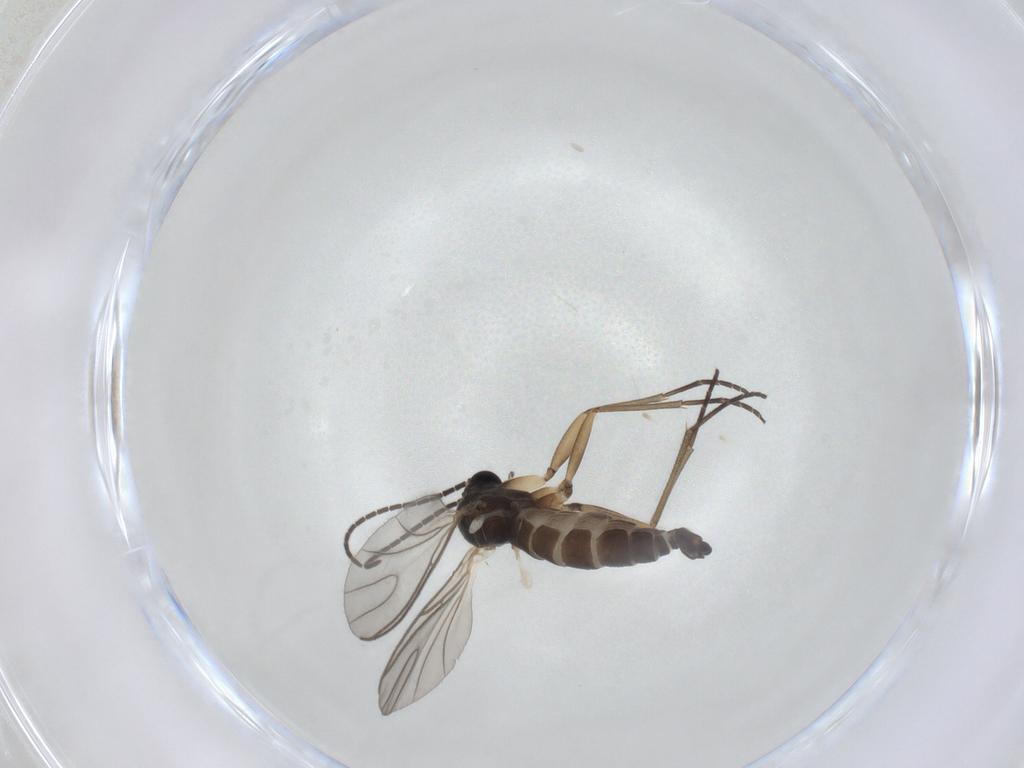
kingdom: Animalia
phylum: Arthropoda
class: Insecta
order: Diptera
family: Sciaridae
